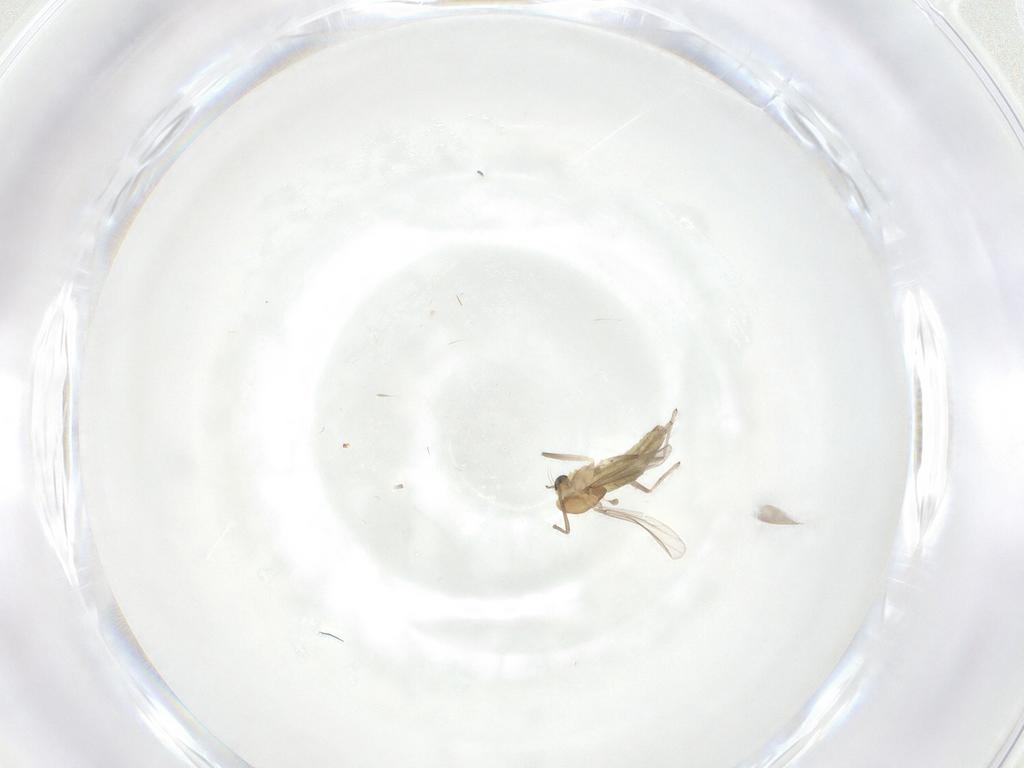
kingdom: Animalia
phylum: Arthropoda
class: Insecta
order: Diptera
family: Chironomidae
